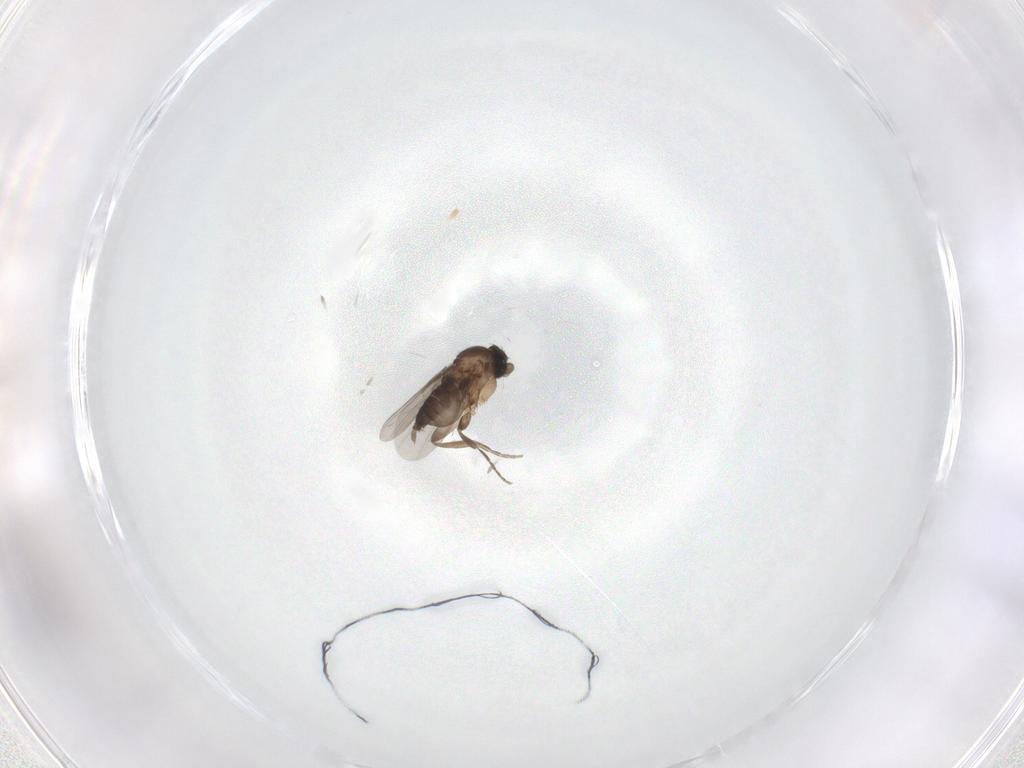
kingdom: Animalia
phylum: Arthropoda
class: Insecta
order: Diptera
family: Phoridae
